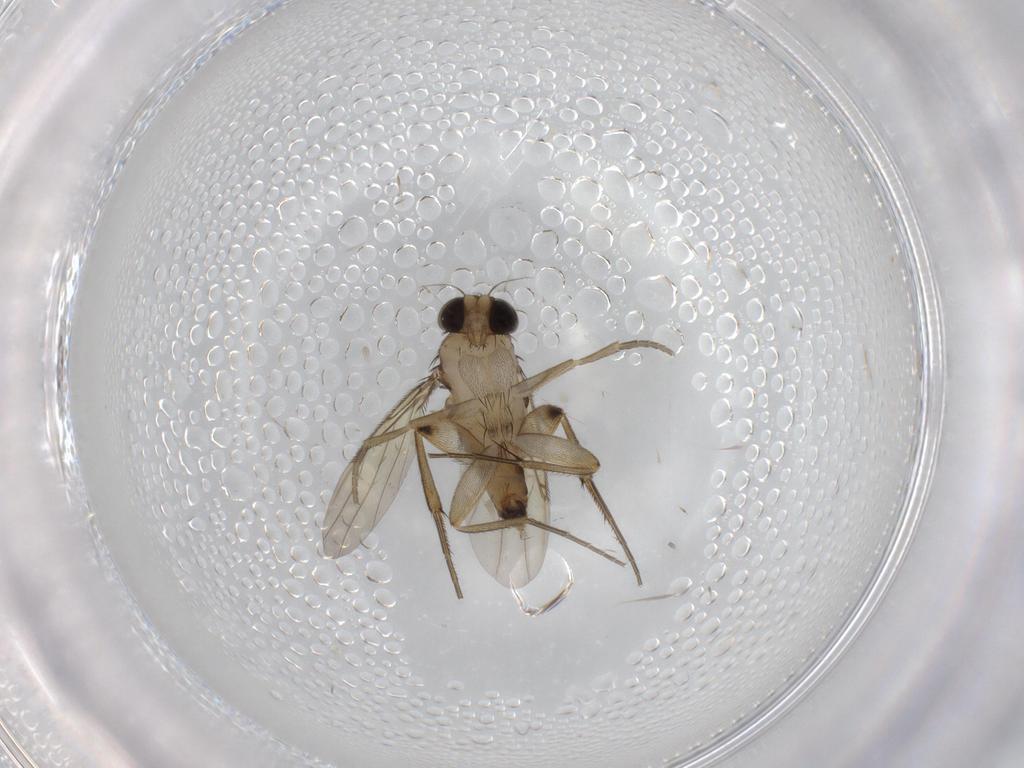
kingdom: Animalia
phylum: Arthropoda
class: Insecta
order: Diptera
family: Phoridae
